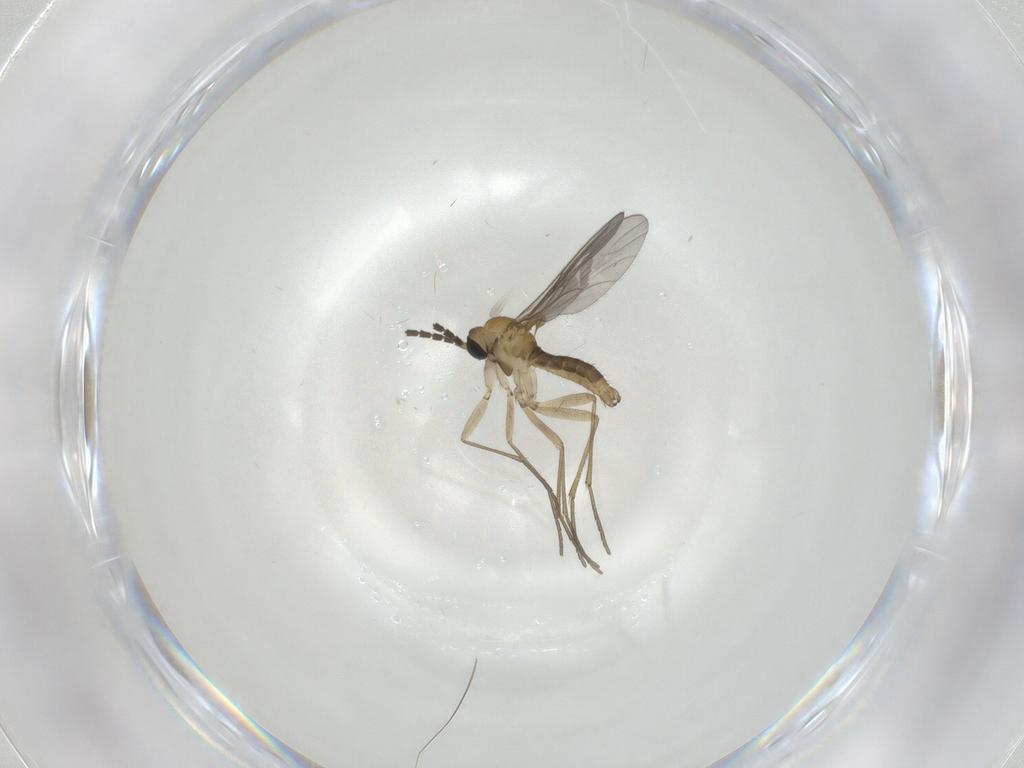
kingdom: Animalia
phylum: Arthropoda
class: Insecta
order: Diptera
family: Sciaridae
